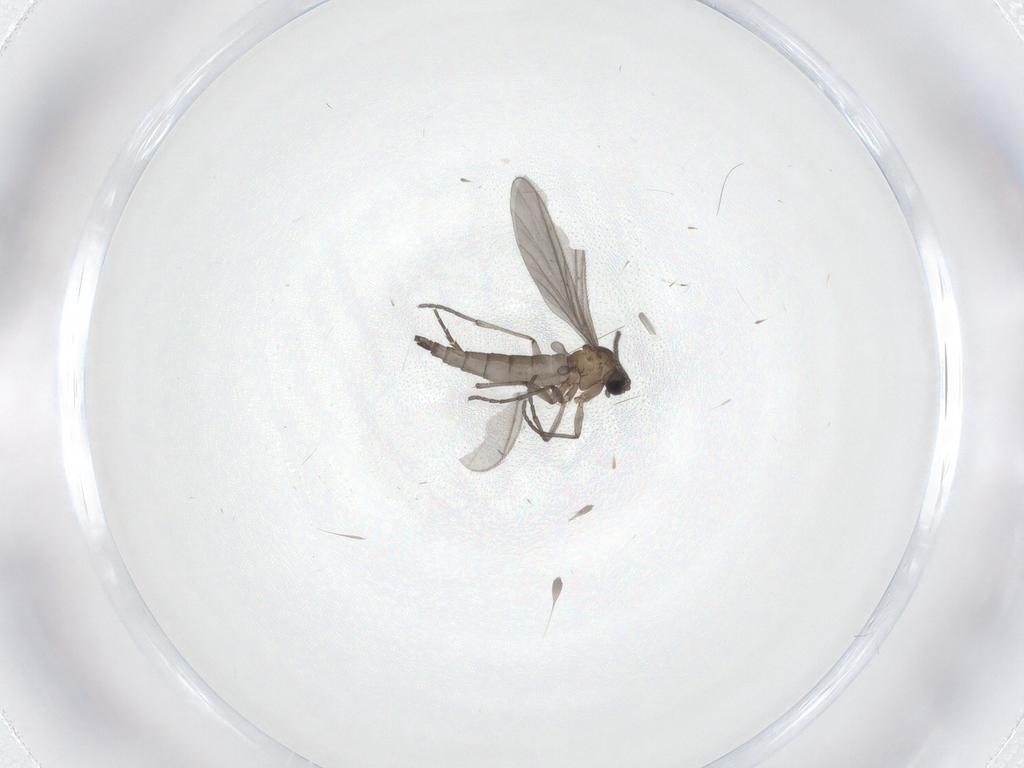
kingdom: Animalia
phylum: Arthropoda
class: Insecta
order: Diptera
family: Sciaridae
